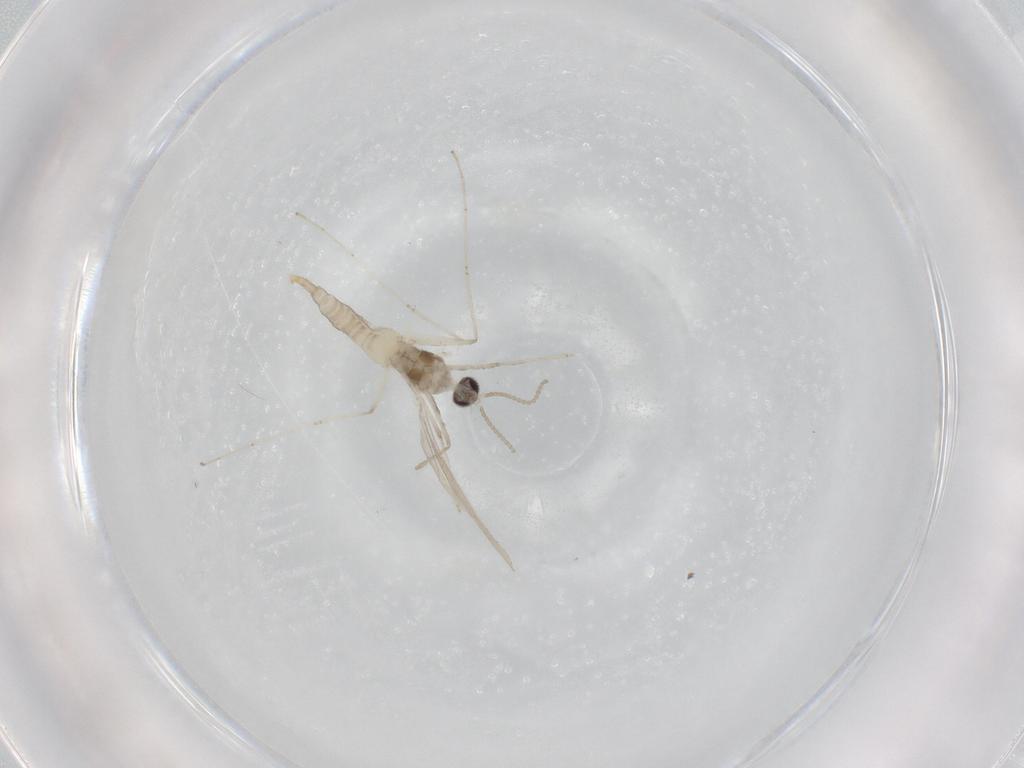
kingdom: Animalia
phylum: Arthropoda
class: Insecta
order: Diptera
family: Cecidomyiidae
